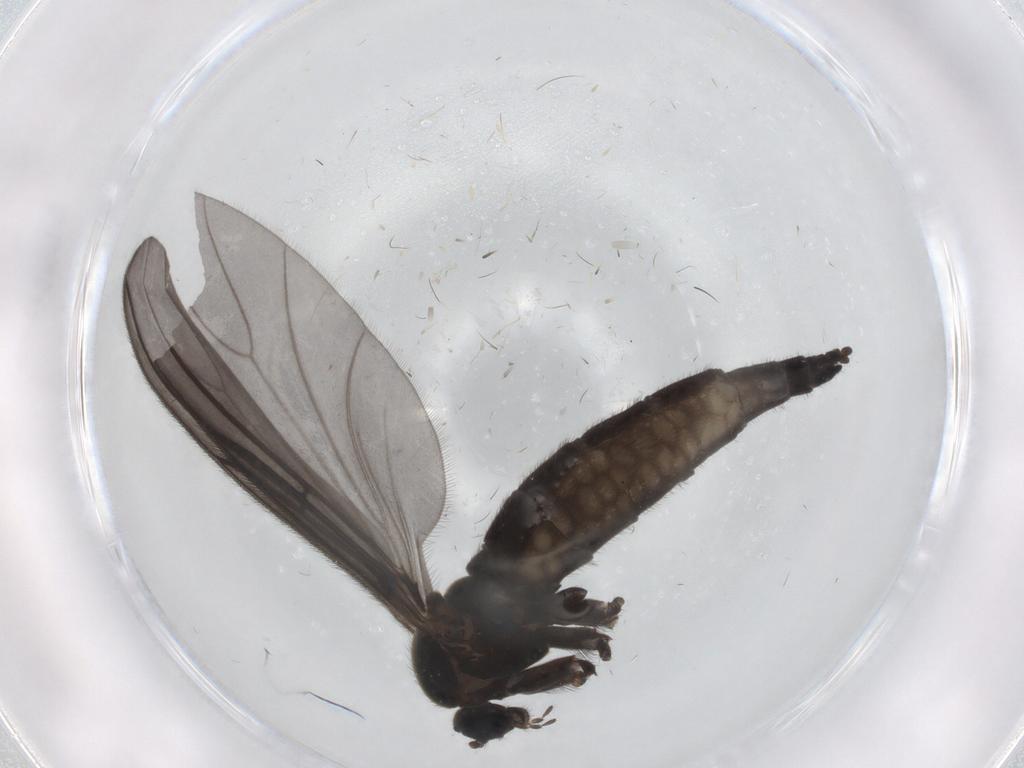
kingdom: Animalia
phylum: Arthropoda
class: Insecta
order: Diptera
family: Sciaridae
